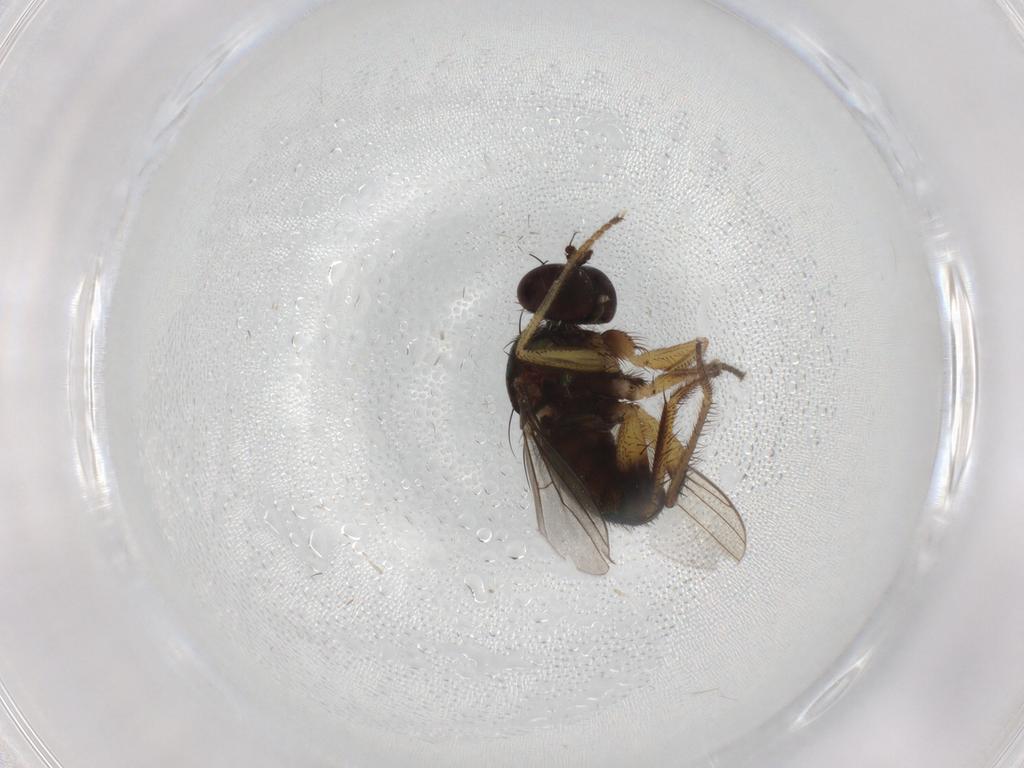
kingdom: Animalia
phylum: Arthropoda
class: Insecta
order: Diptera
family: Dolichopodidae
